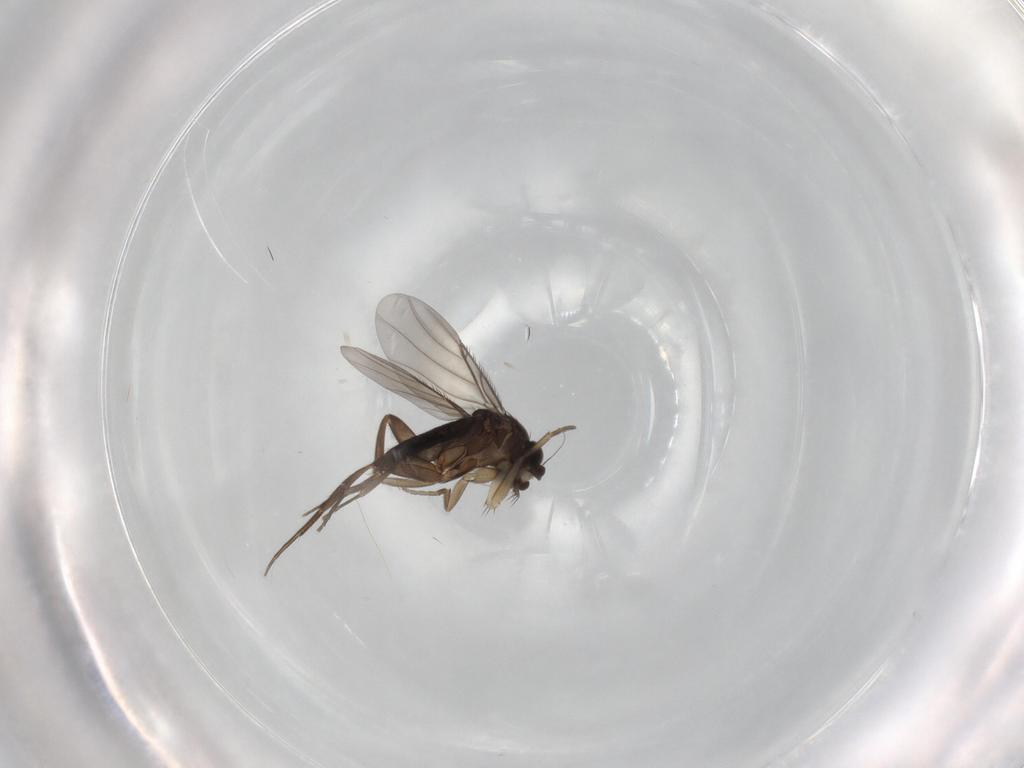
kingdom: Animalia
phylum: Arthropoda
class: Insecta
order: Diptera
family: Phoridae
